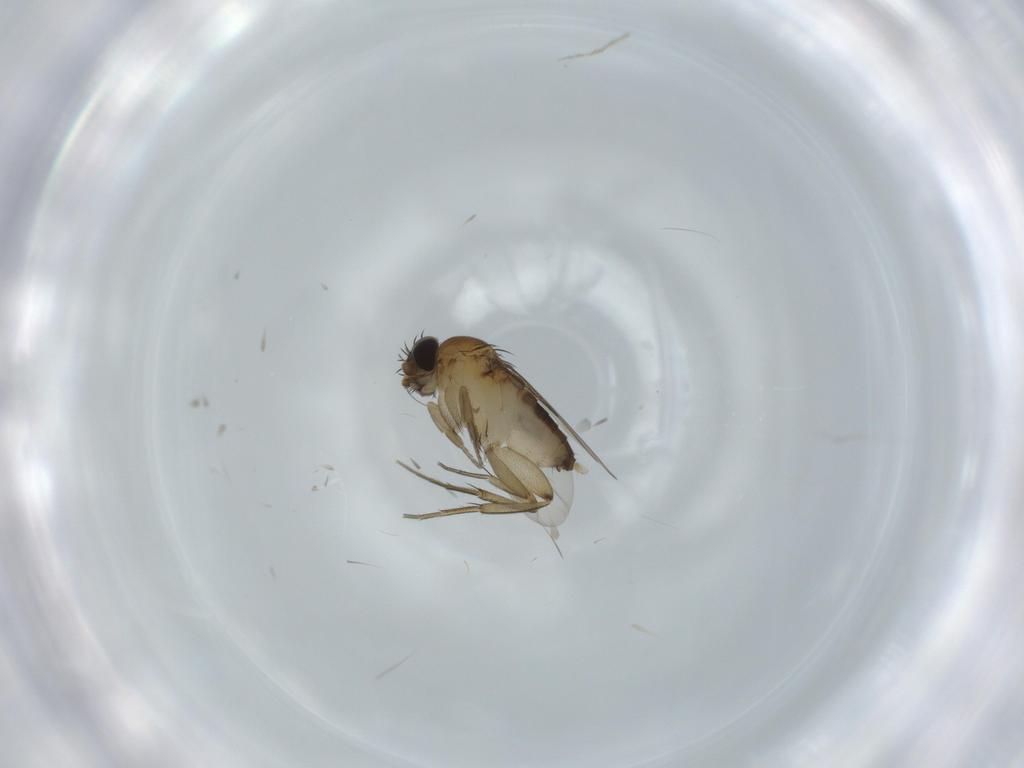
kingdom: Animalia
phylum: Arthropoda
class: Insecta
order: Diptera
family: Phoridae
